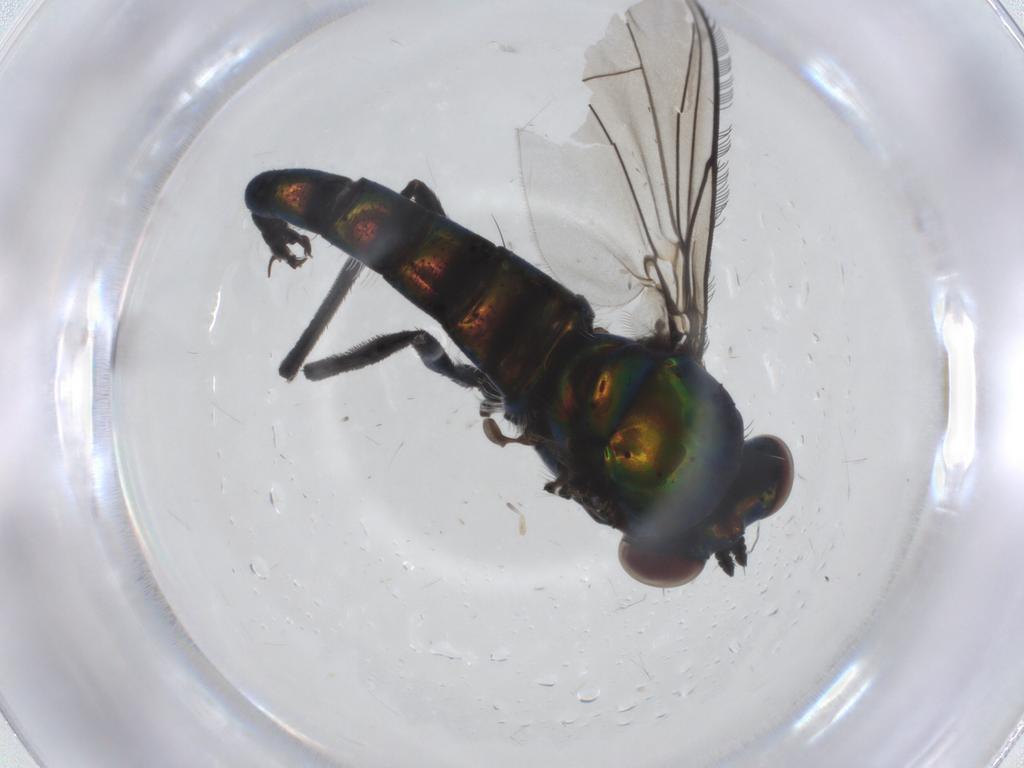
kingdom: Animalia
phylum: Arthropoda
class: Insecta
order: Diptera
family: Dolichopodidae
